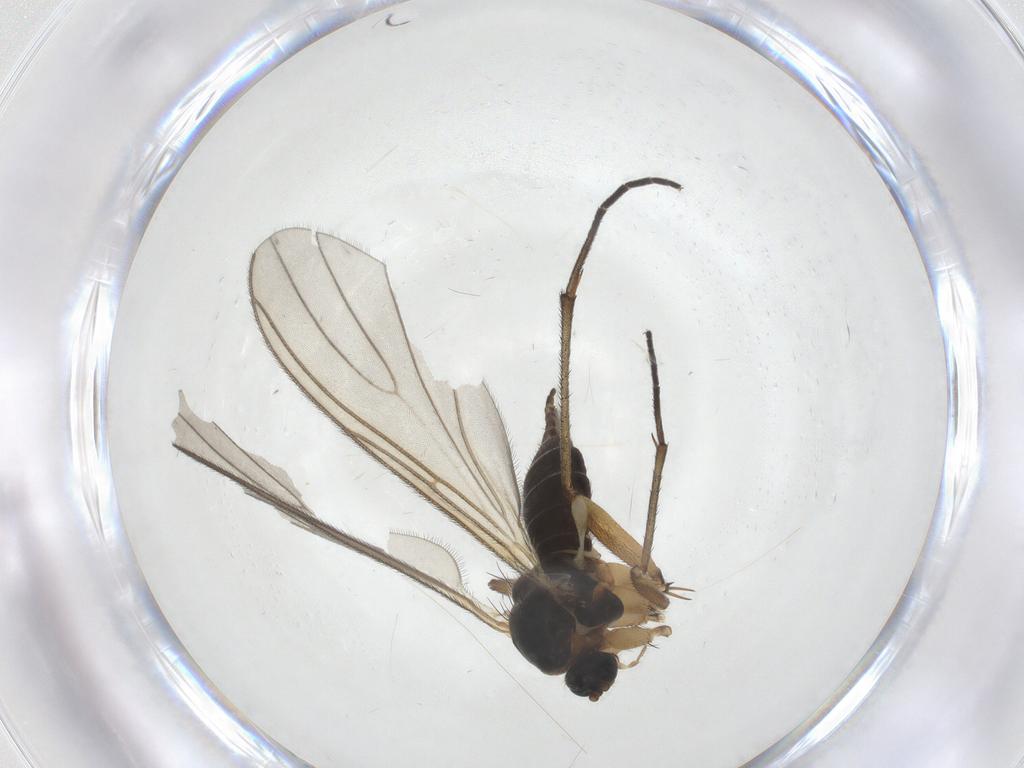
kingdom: Animalia
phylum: Arthropoda
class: Insecta
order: Diptera
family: Sciaridae
